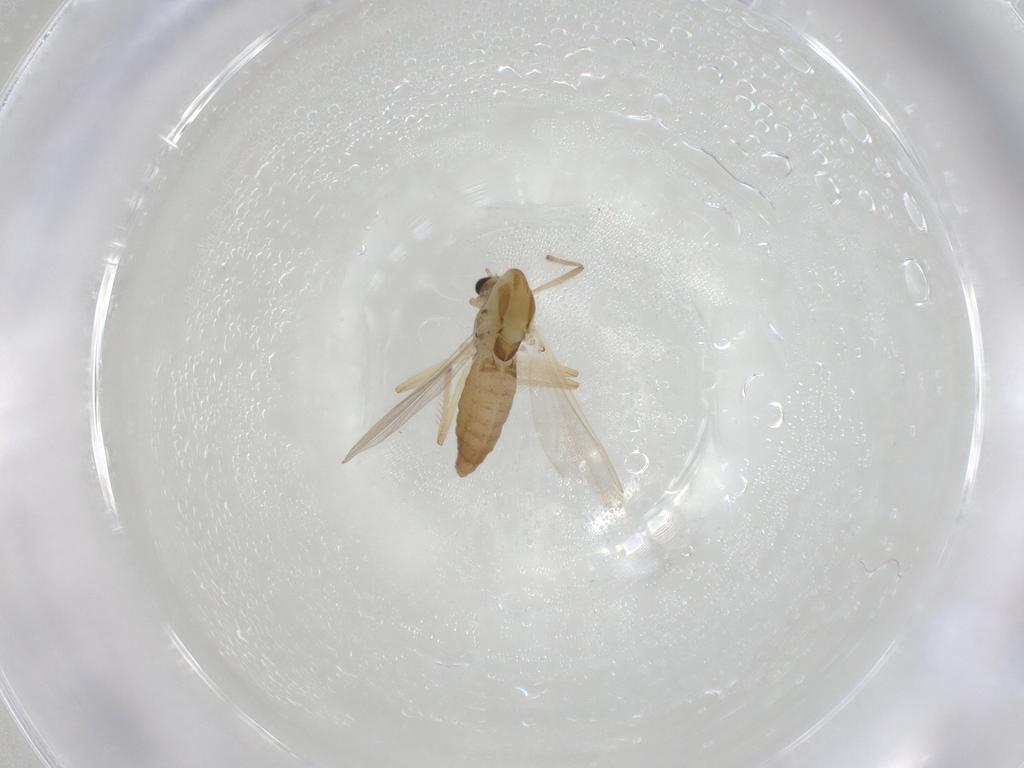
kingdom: Animalia
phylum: Arthropoda
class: Insecta
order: Diptera
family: Chironomidae
